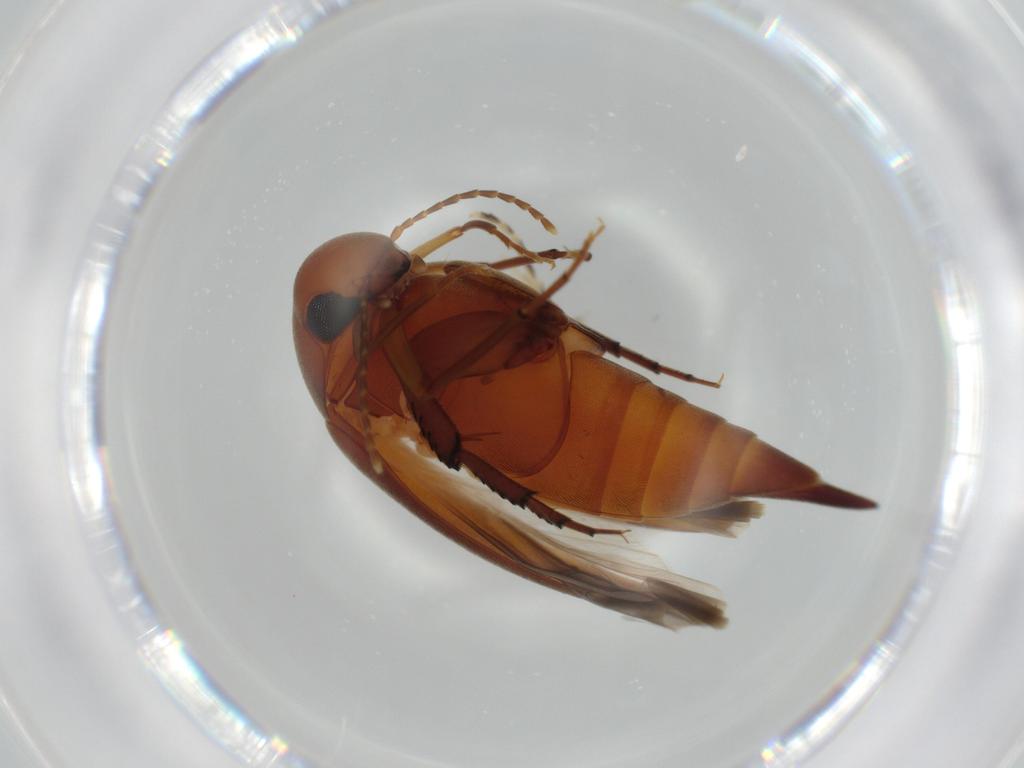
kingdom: Animalia
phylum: Arthropoda
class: Insecta
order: Coleoptera
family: Mordellidae
